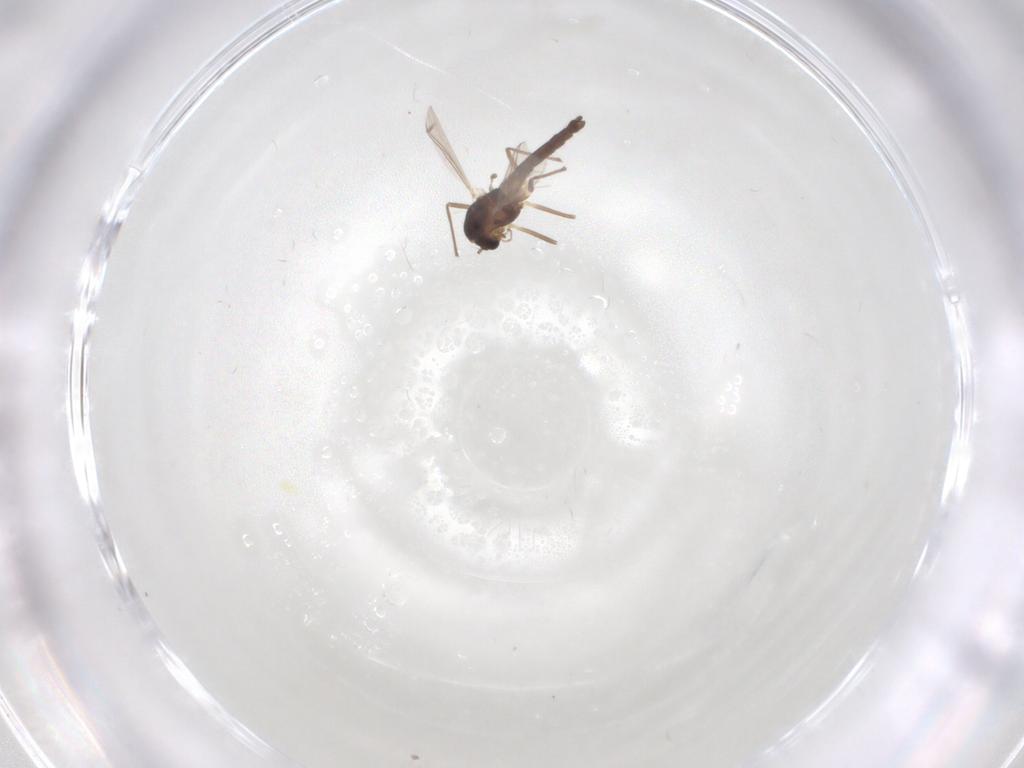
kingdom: Animalia
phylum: Arthropoda
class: Insecta
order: Diptera
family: Chironomidae
